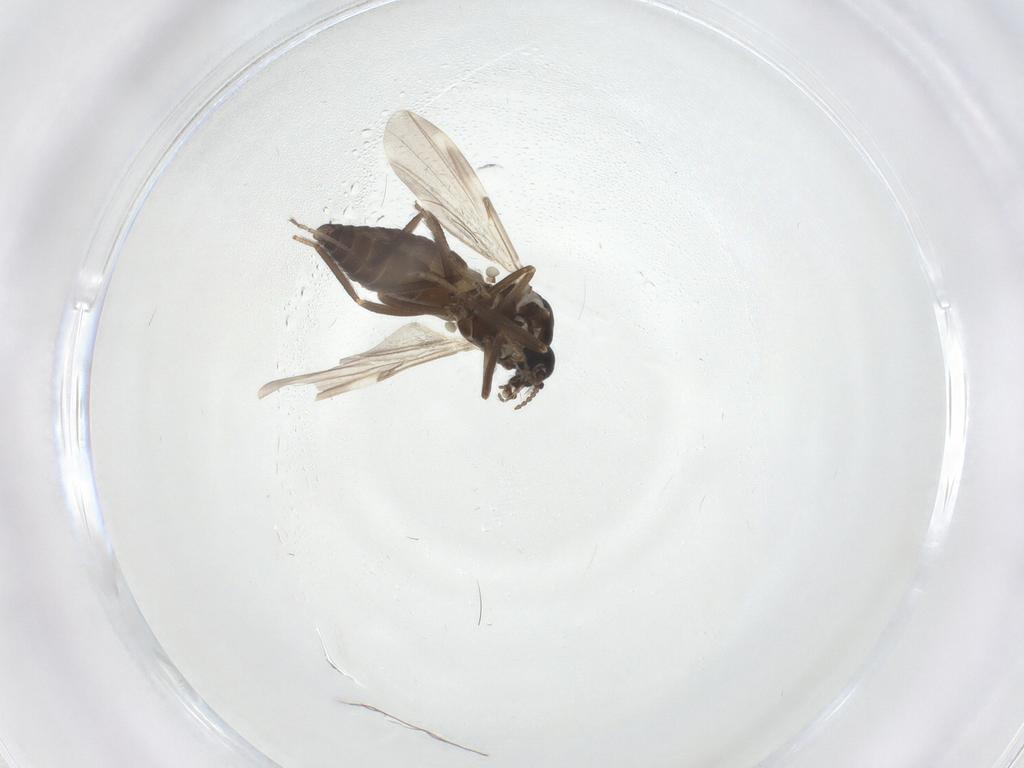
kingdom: Animalia
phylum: Arthropoda
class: Insecta
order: Diptera
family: Ceratopogonidae
